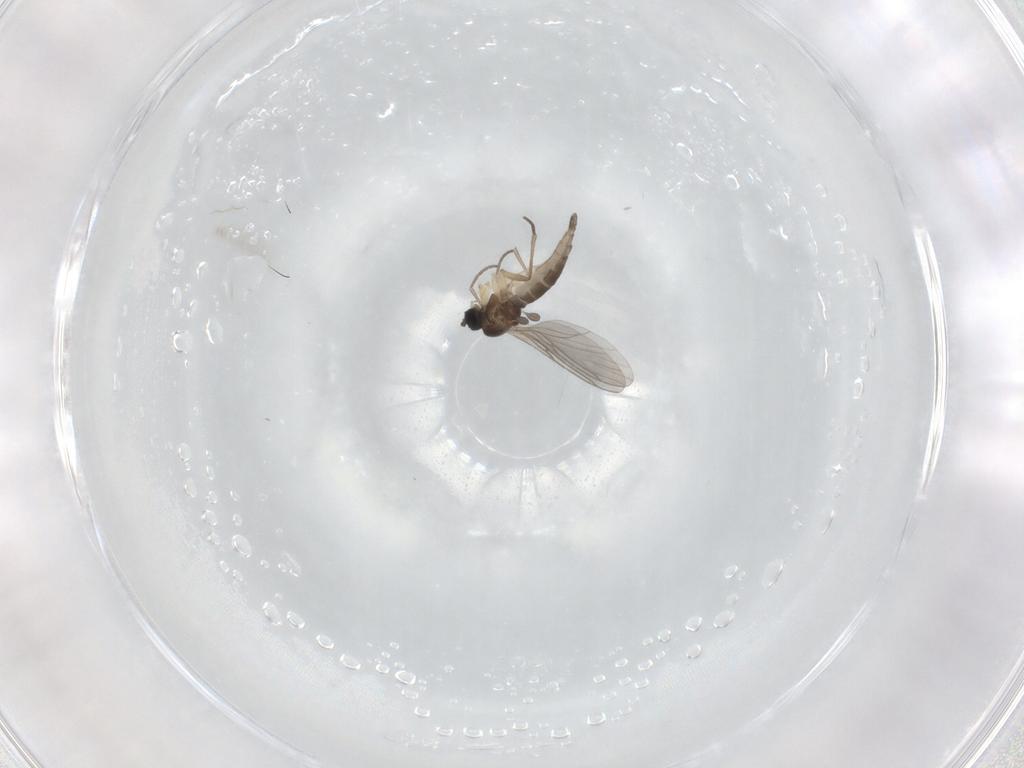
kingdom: Animalia
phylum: Arthropoda
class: Insecta
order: Diptera
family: Sciaridae
